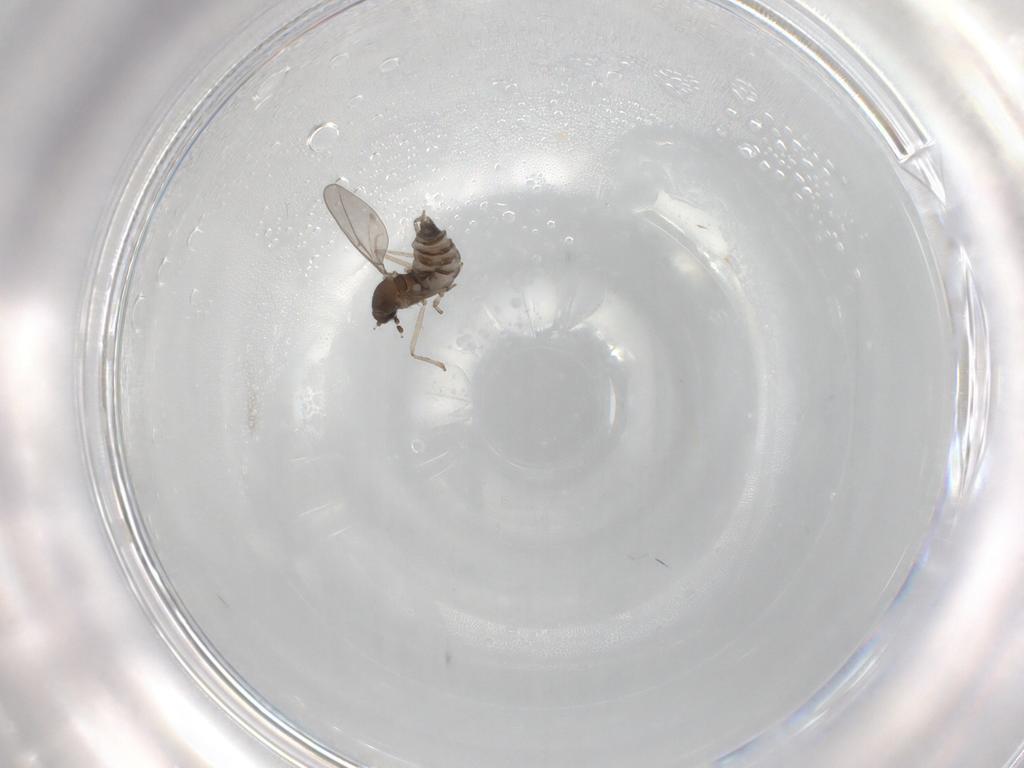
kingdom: Animalia
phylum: Arthropoda
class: Insecta
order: Diptera
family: Cecidomyiidae
